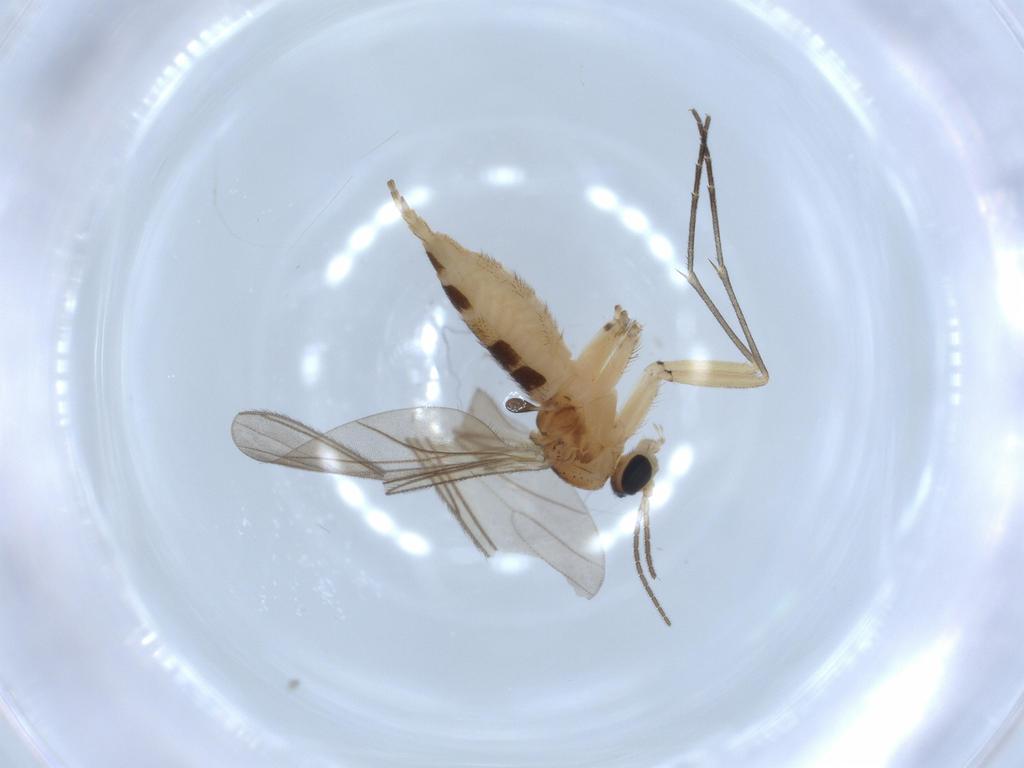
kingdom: Animalia
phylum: Arthropoda
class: Insecta
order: Diptera
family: Sciaridae
